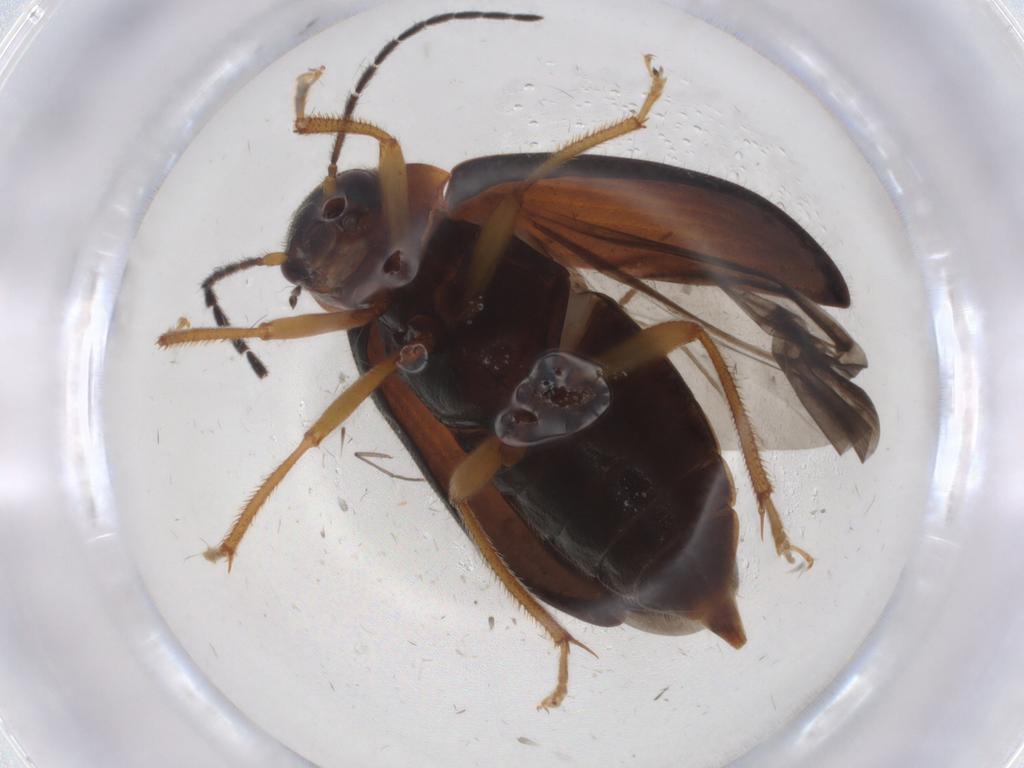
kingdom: Animalia
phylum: Arthropoda
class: Insecta
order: Coleoptera
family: Ptilodactylidae
